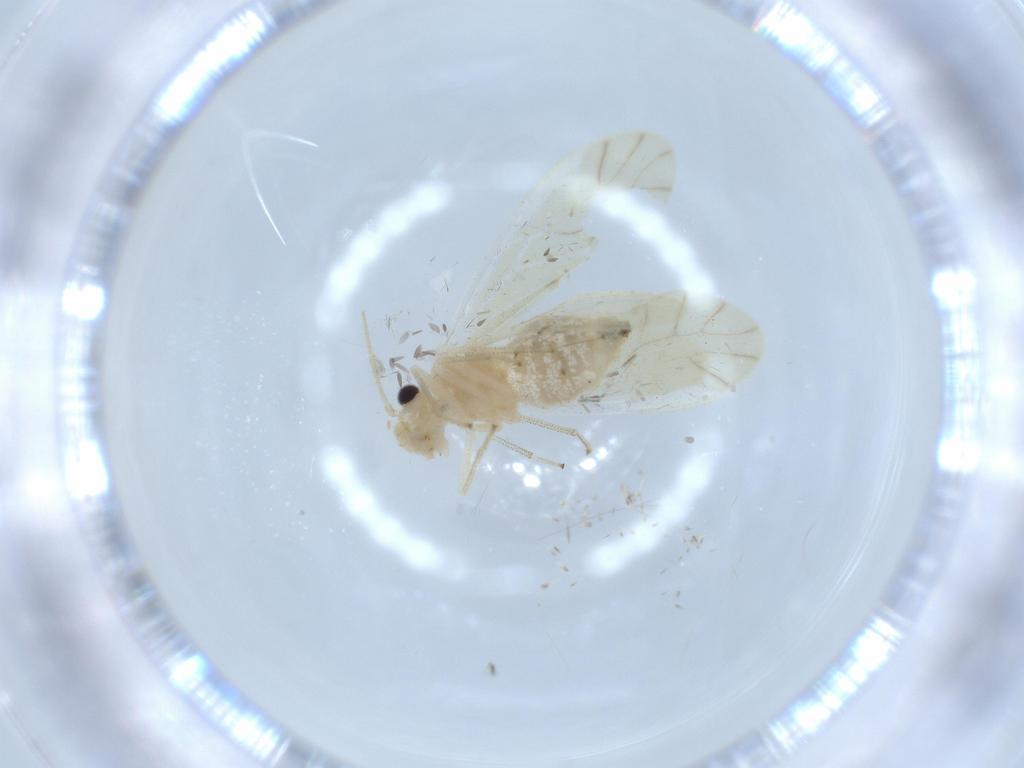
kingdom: Animalia
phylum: Arthropoda
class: Insecta
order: Psocodea
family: Caeciliusidae
